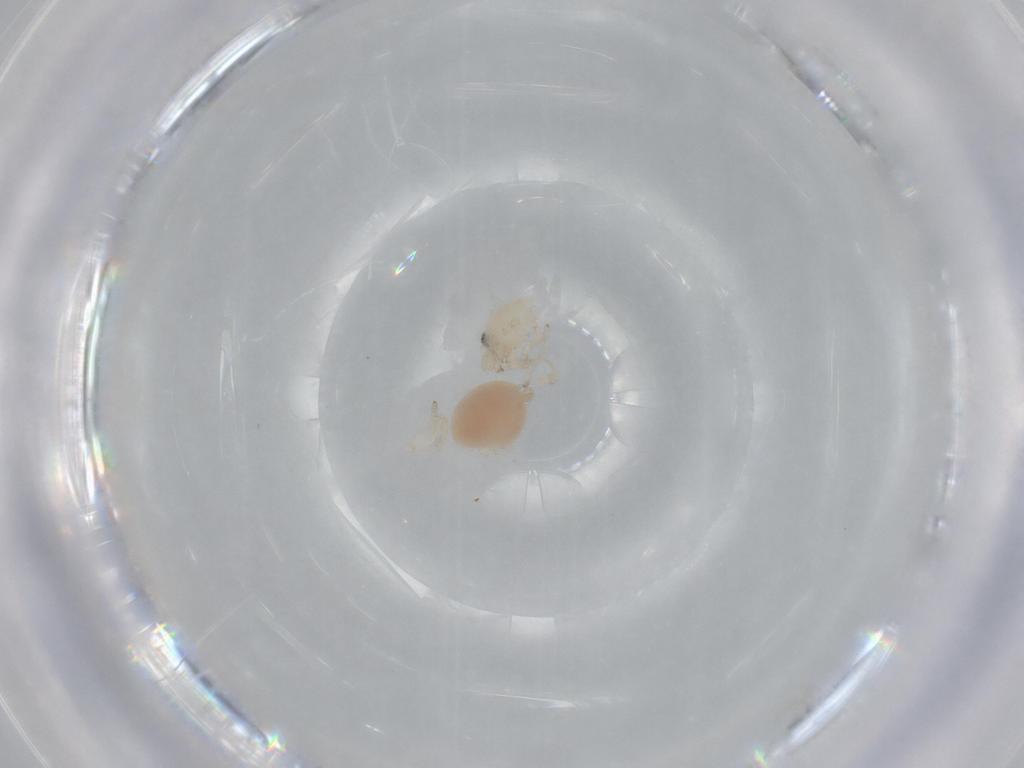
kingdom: Animalia
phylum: Arthropoda
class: Arachnida
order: Araneae
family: Oonopidae
